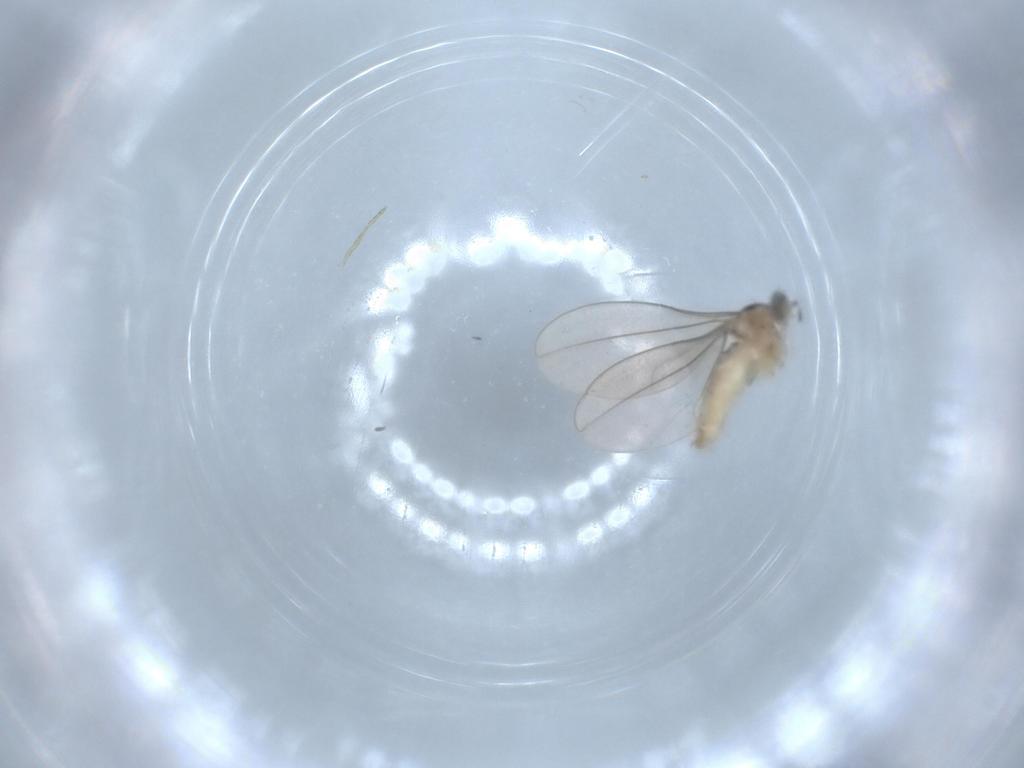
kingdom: Animalia
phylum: Arthropoda
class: Insecta
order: Diptera
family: Cecidomyiidae
